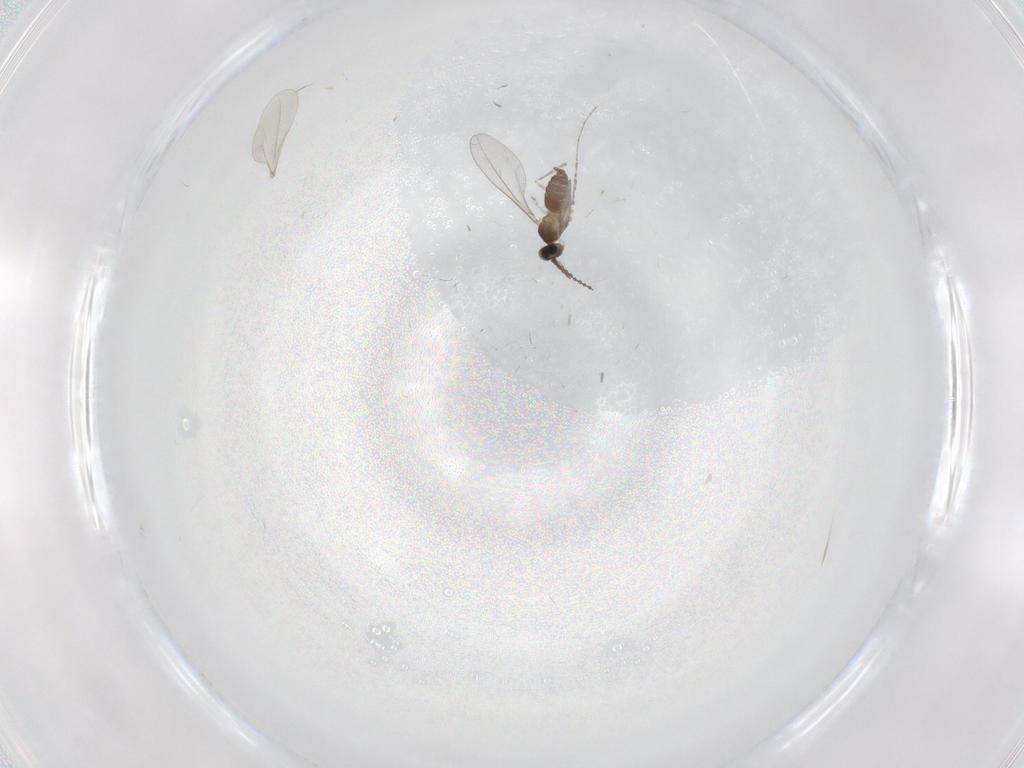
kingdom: Animalia
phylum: Arthropoda
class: Insecta
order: Diptera
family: Cecidomyiidae
